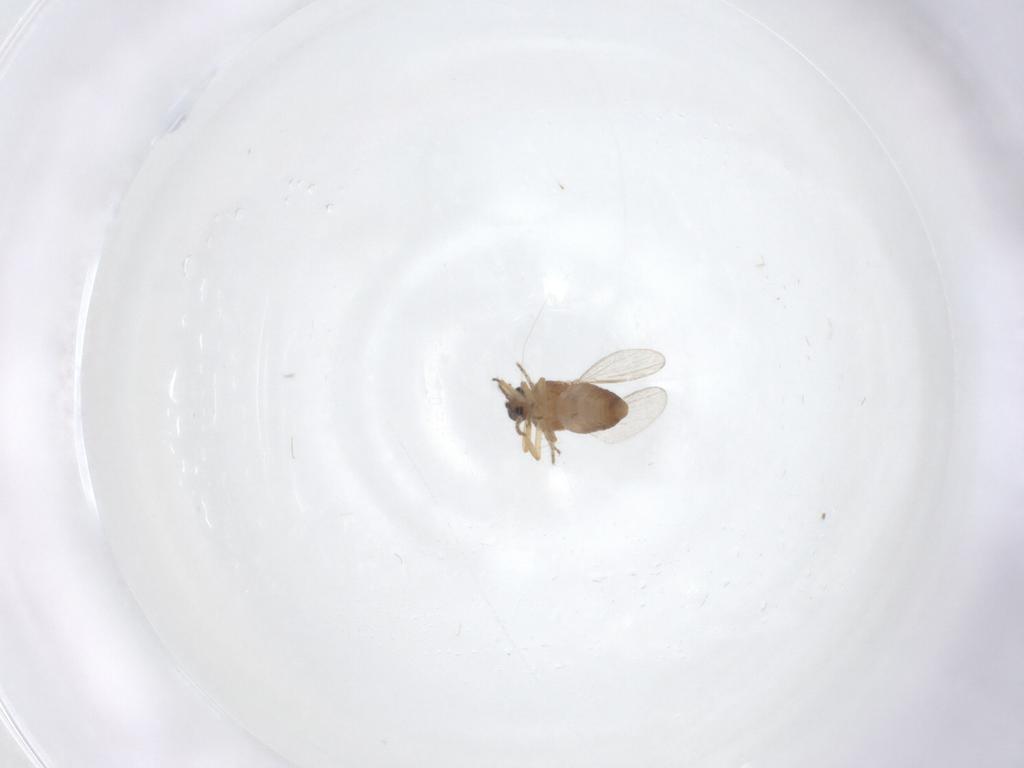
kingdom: Animalia
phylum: Arthropoda
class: Insecta
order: Diptera
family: Ceratopogonidae
